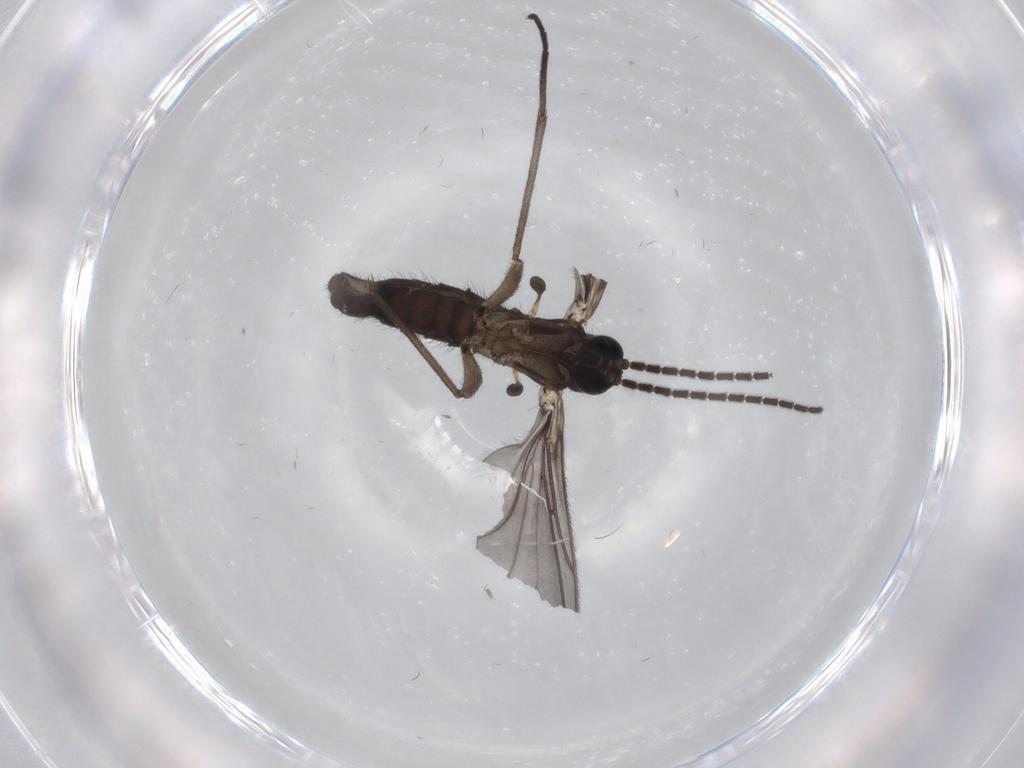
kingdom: Animalia
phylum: Arthropoda
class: Insecta
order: Diptera
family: Sciaridae
